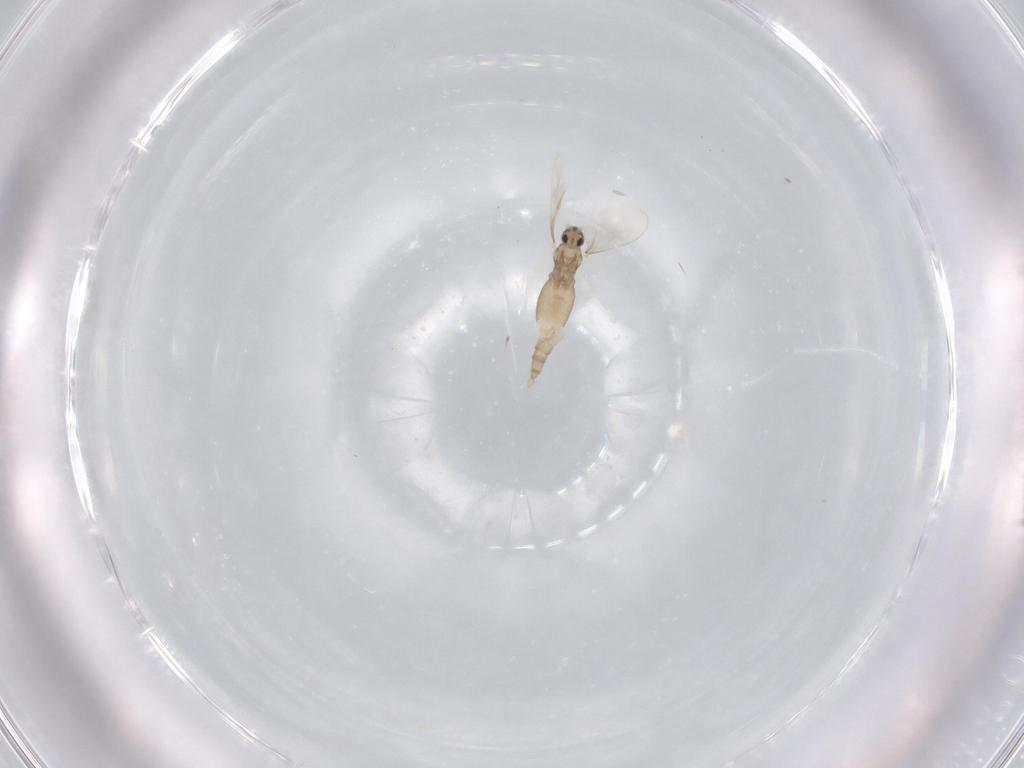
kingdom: Animalia
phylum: Arthropoda
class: Insecta
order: Diptera
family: Cecidomyiidae
